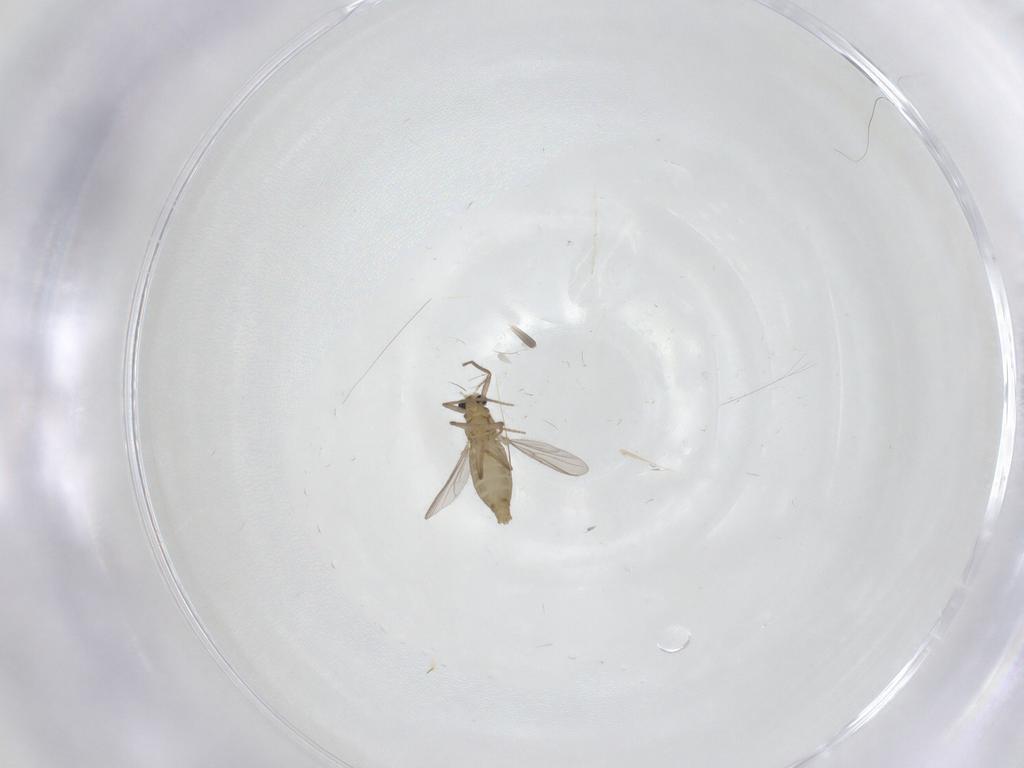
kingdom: Animalia
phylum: Arthropoda
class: Insecta
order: Diptera
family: Chironomidae
